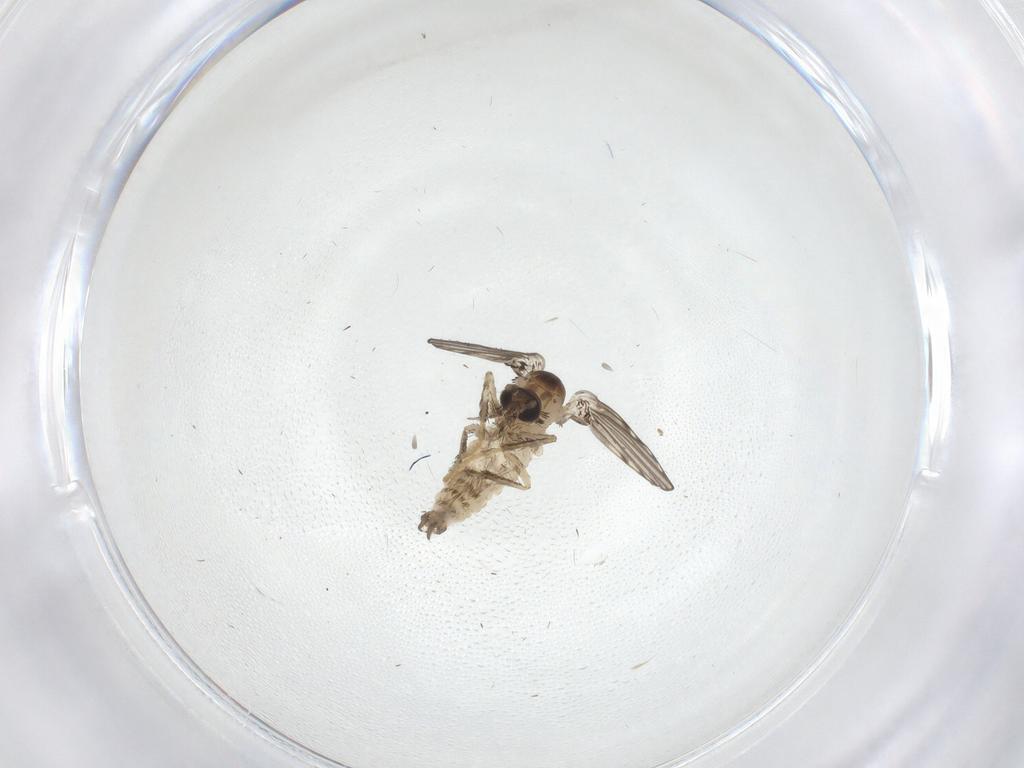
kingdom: Animalia
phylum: Arthropoda
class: Insecta
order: Diptera
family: Psychodidae
